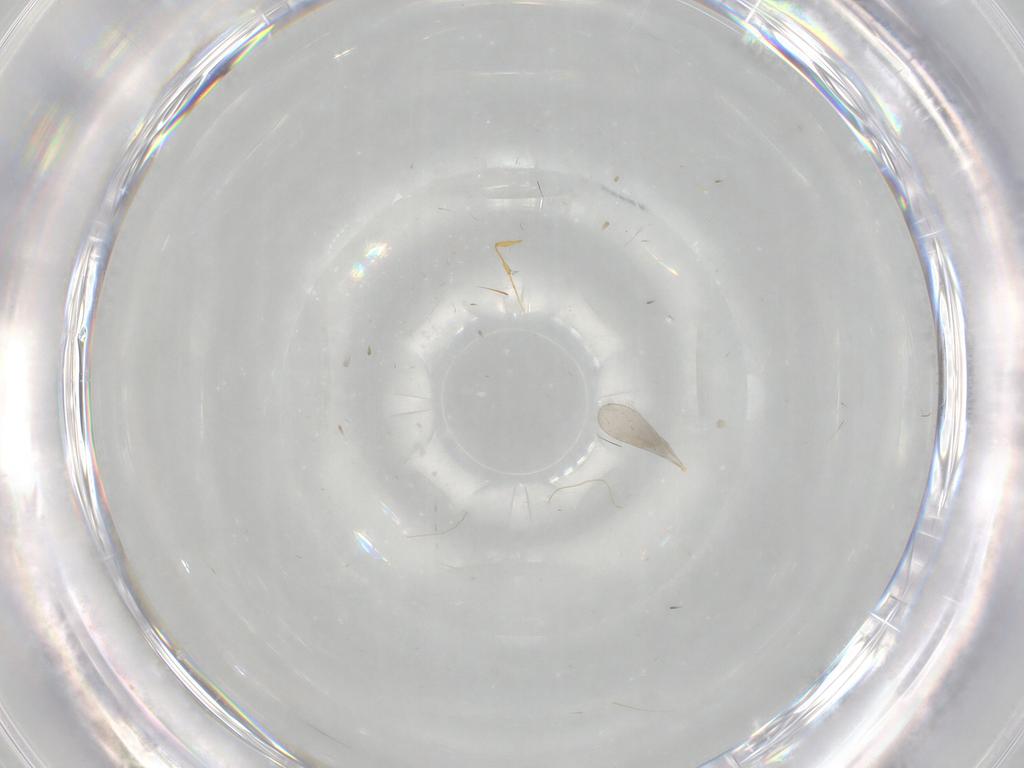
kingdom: Animalia
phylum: Arthropoda
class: Insecta
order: Hymenoptera
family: Platygastridae
